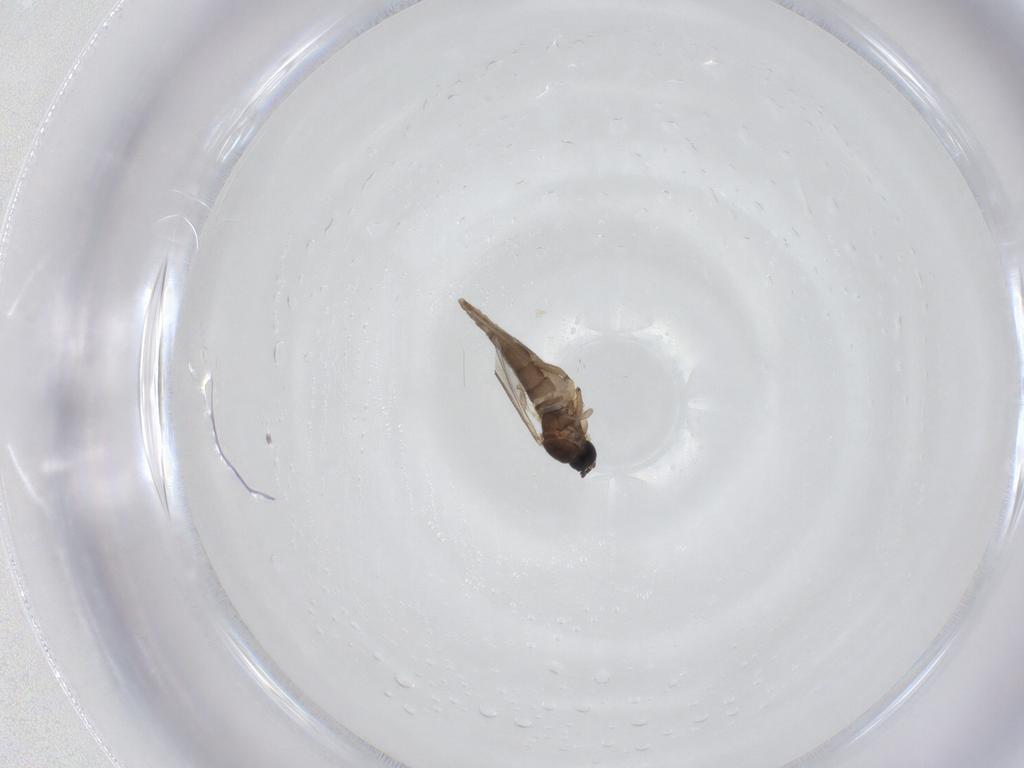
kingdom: Animalia
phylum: Arthropoda
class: Insecta
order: Diptera
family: Sciaridae
